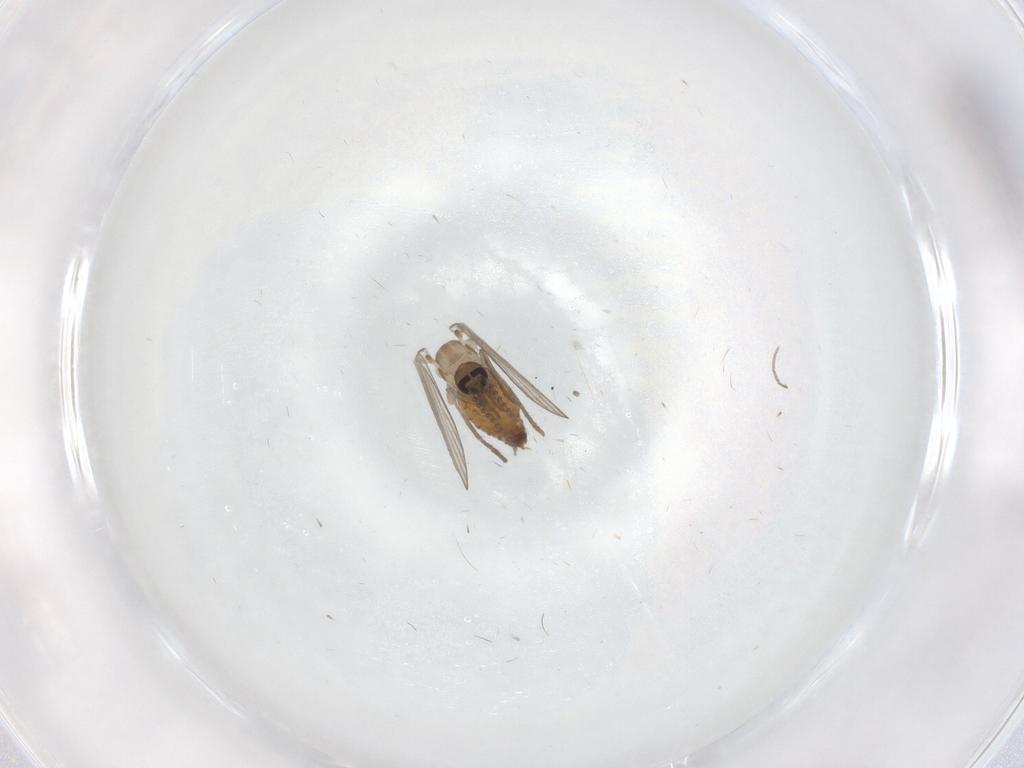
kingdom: Animalia
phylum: Arthropoda
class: Insecta
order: Diptera
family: Psychodidae
